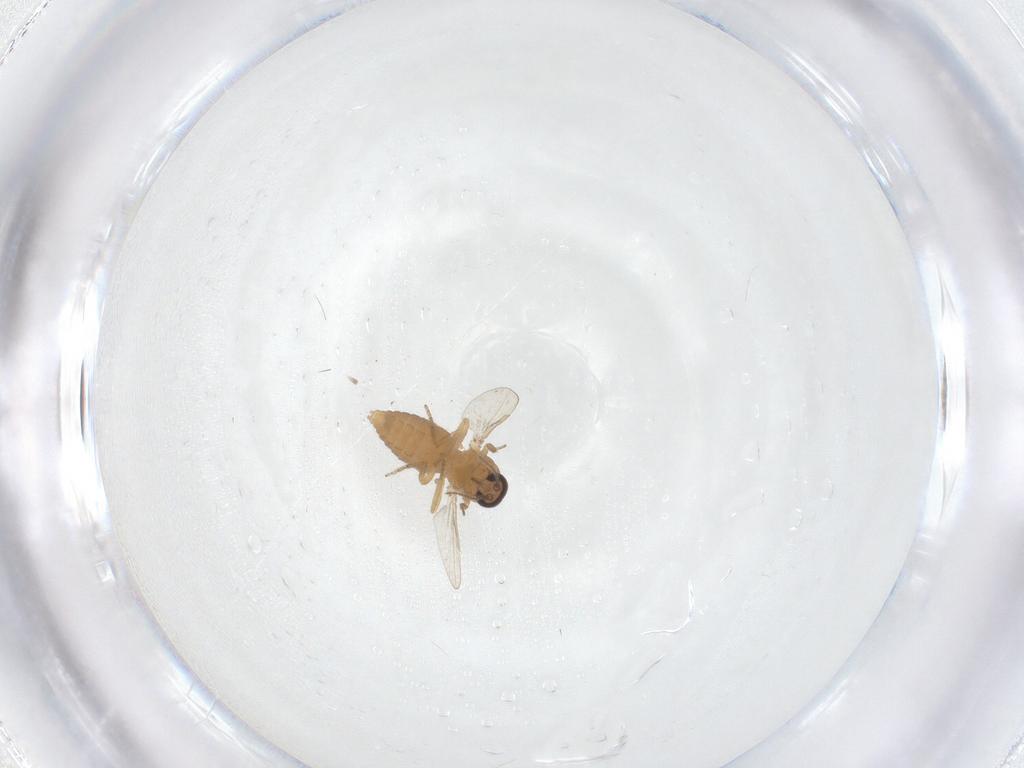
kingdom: Animalia
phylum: Arthropoda
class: Insecta
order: Diptera
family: Ceratopogonidae
